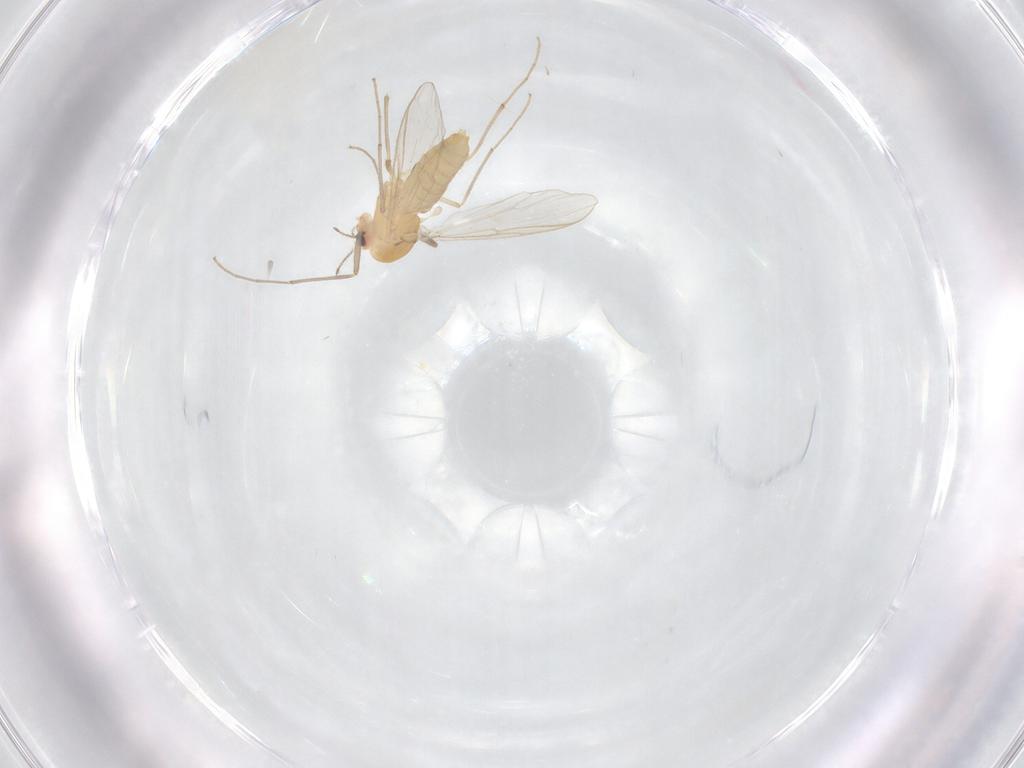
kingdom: Animalia
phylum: Arthropoda
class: Insecta
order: Diptera
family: Chironomidae
